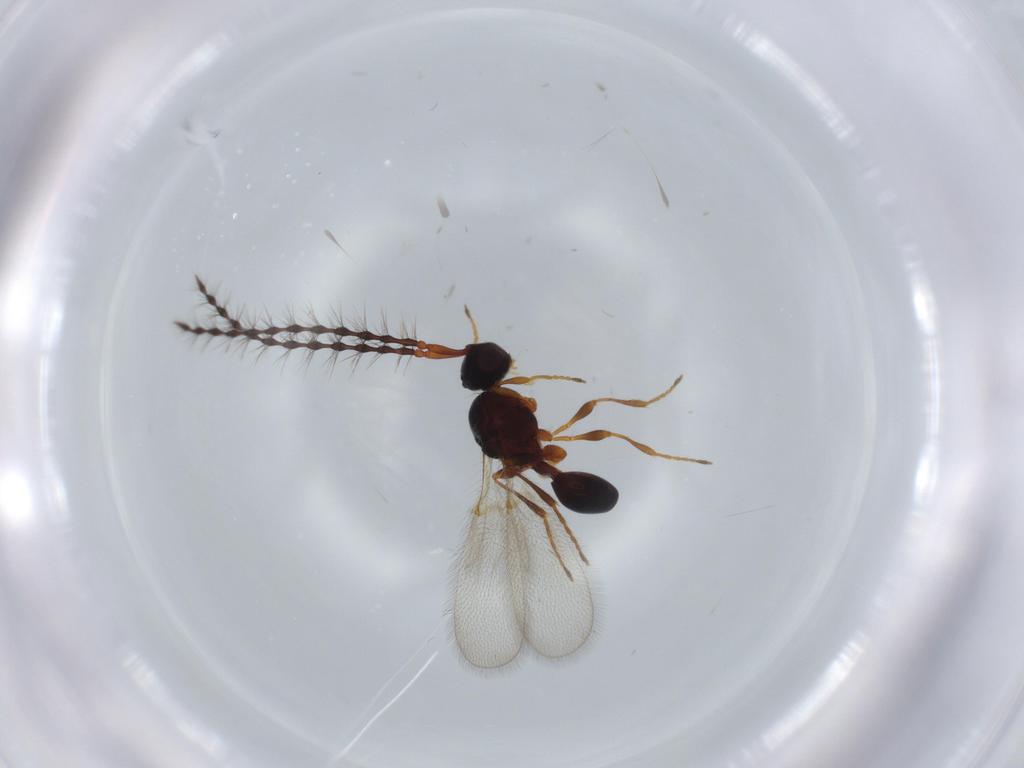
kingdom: Animalia
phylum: Arthropoda
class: Insecta
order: Hymenoptera
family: Diapriidae
